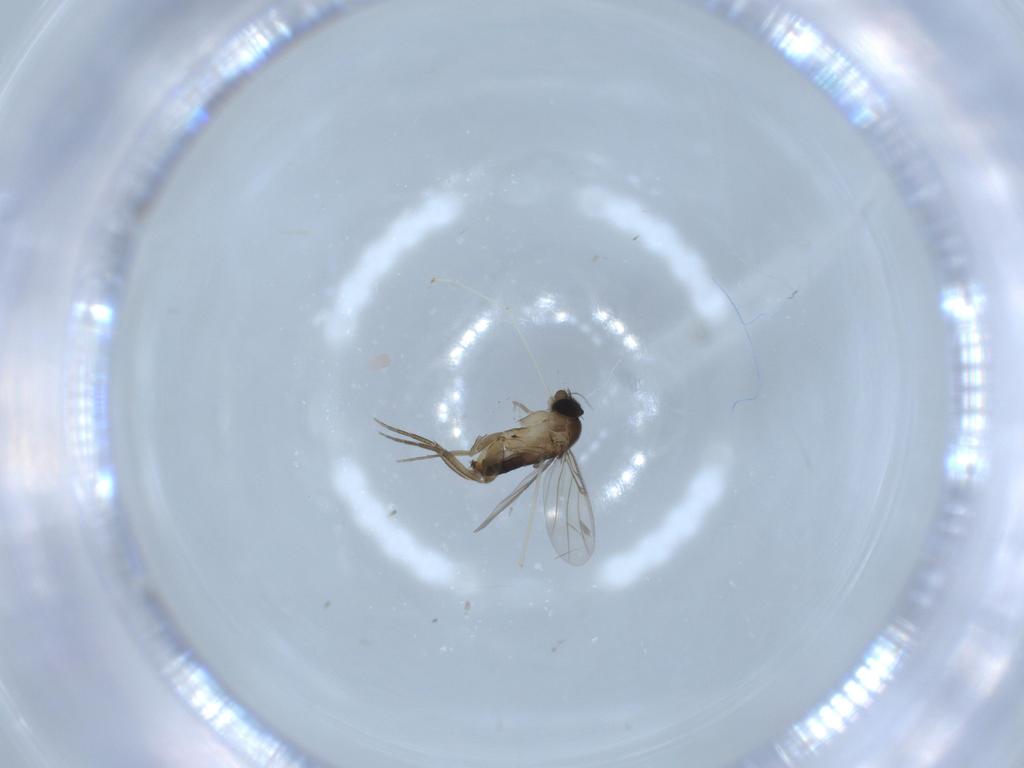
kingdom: Animalia
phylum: Arthropoda
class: Insecta
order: Diptera
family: Phoridae
